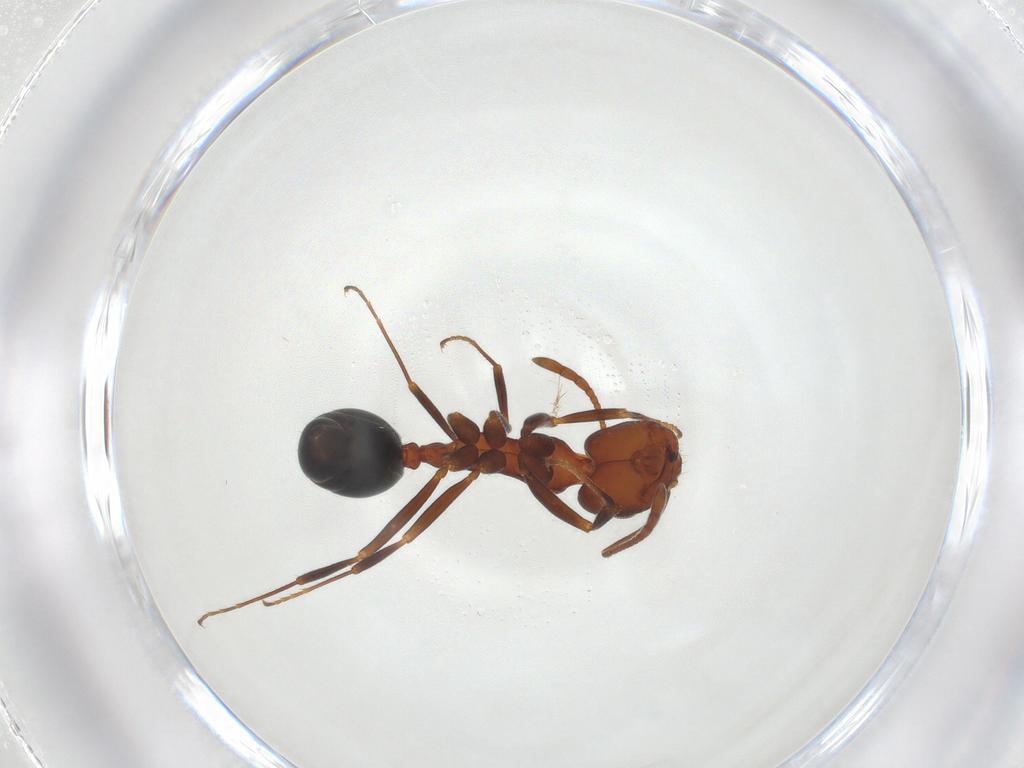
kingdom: Animalia
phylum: Arthropoda
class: Insecta
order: Hymenoptera
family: Formicidae
